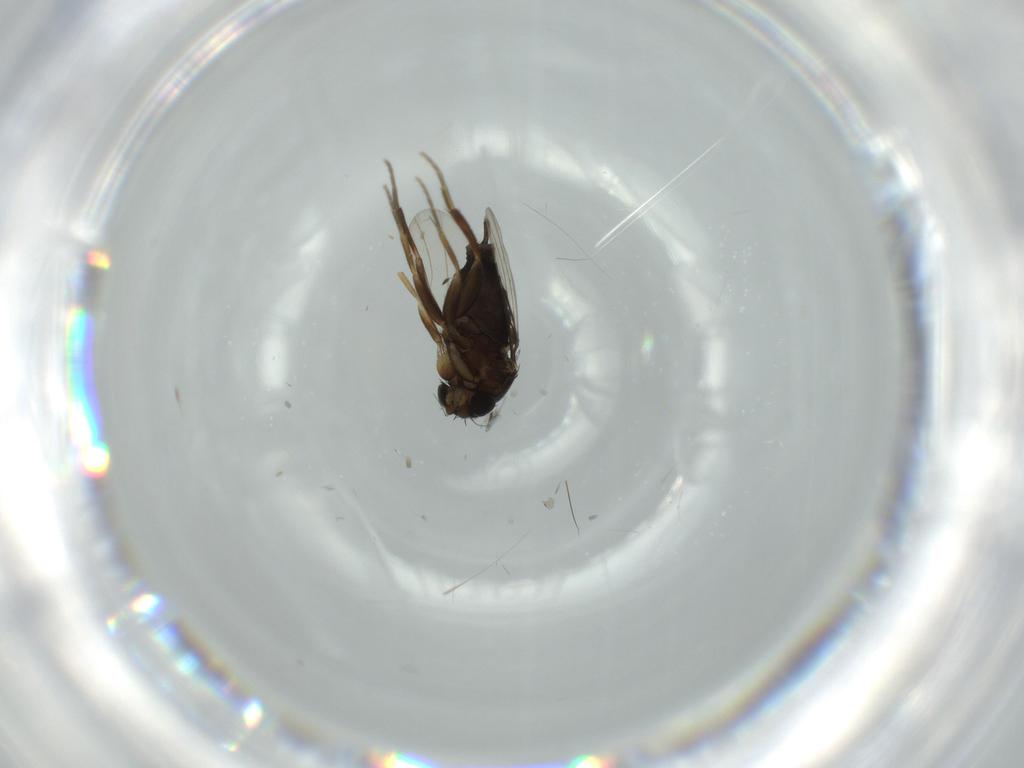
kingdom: Animalia
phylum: Arthropoda
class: Insecta
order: Diptera
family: Phoridae
